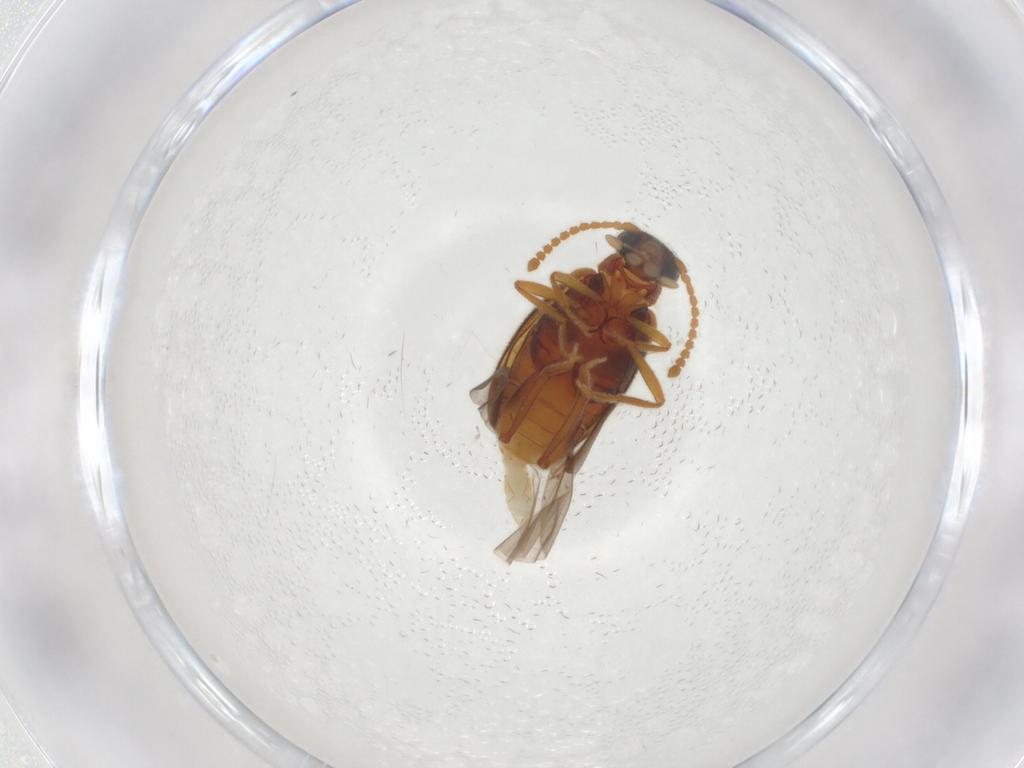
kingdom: Animalia
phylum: Arthropoda
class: Insecta
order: Coleoptera
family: Aderidae
